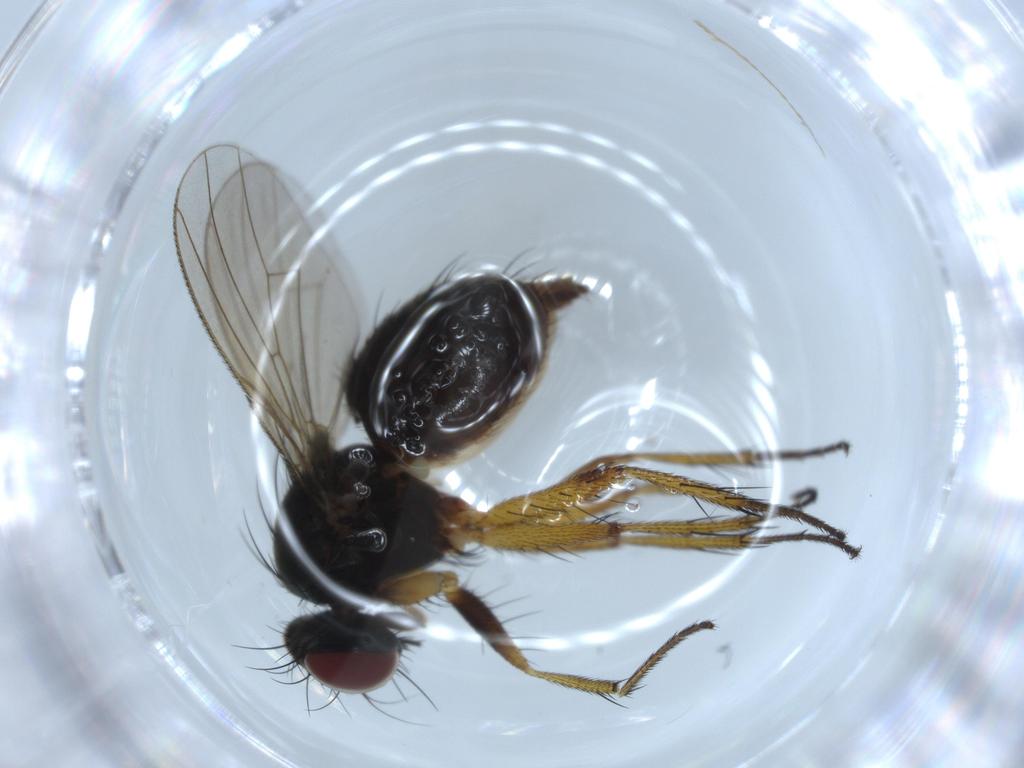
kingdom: Animalia
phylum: Arthropoda
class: Insecta
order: Diptera
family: Muscidae
